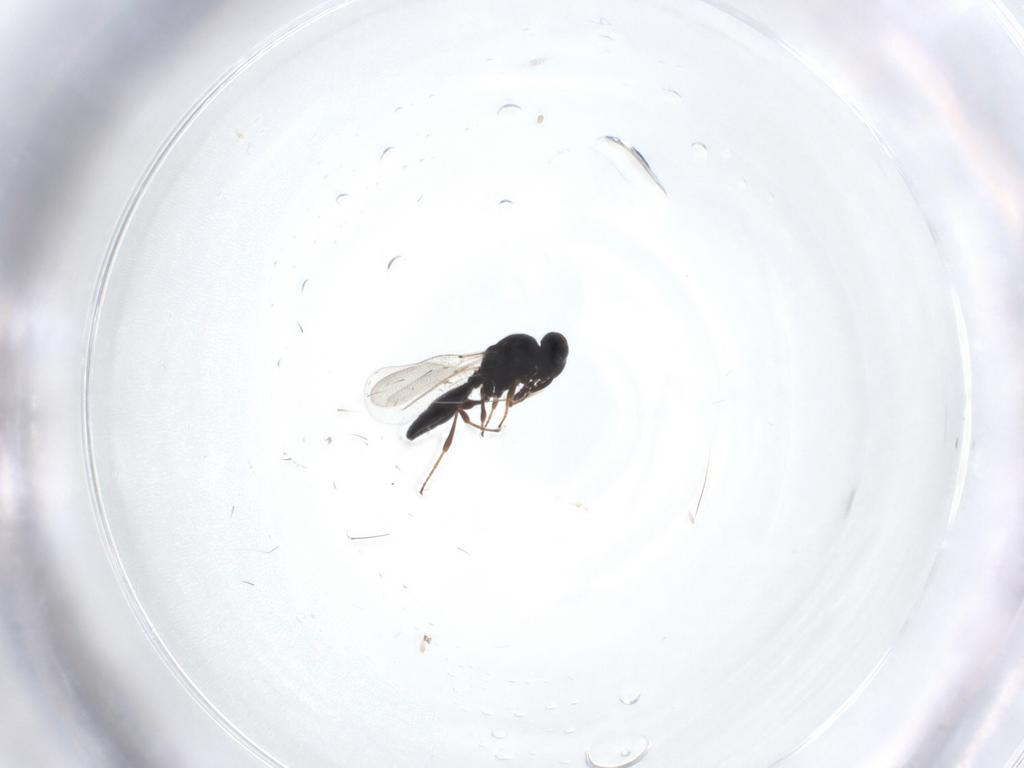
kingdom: Animalia
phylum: Arthropoda
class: Insecta
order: Hymenoptera
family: Platygastridae
